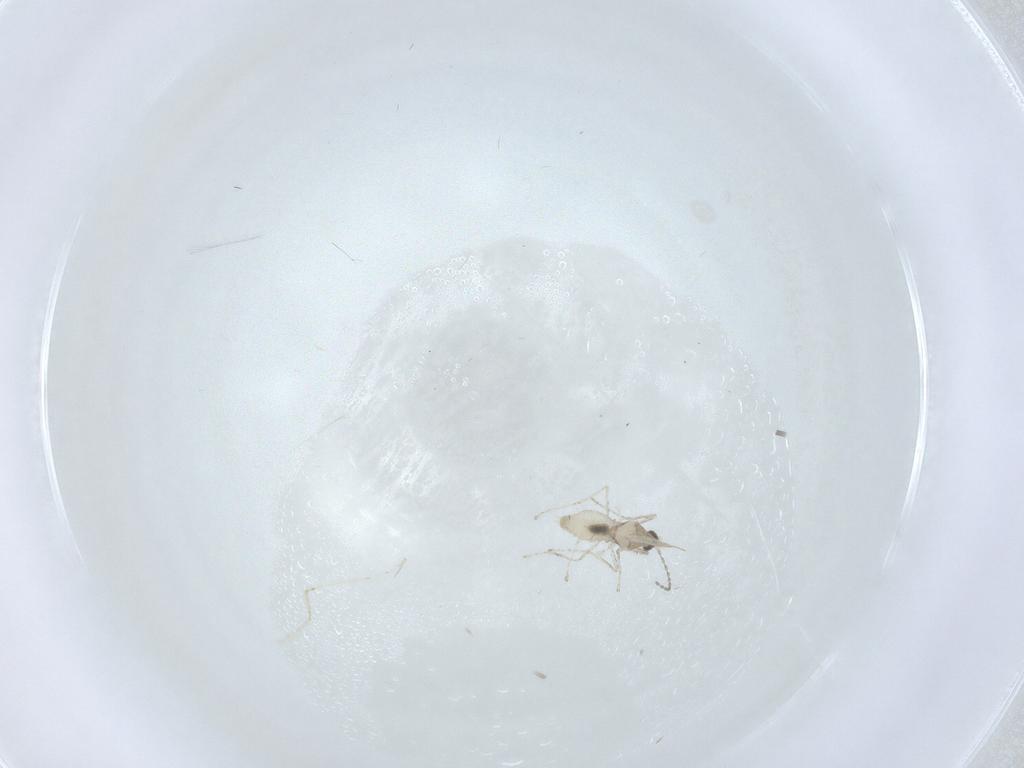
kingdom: Animalia
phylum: Arthropoda
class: Insecta
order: Diptera
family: Cecidomyiidae
